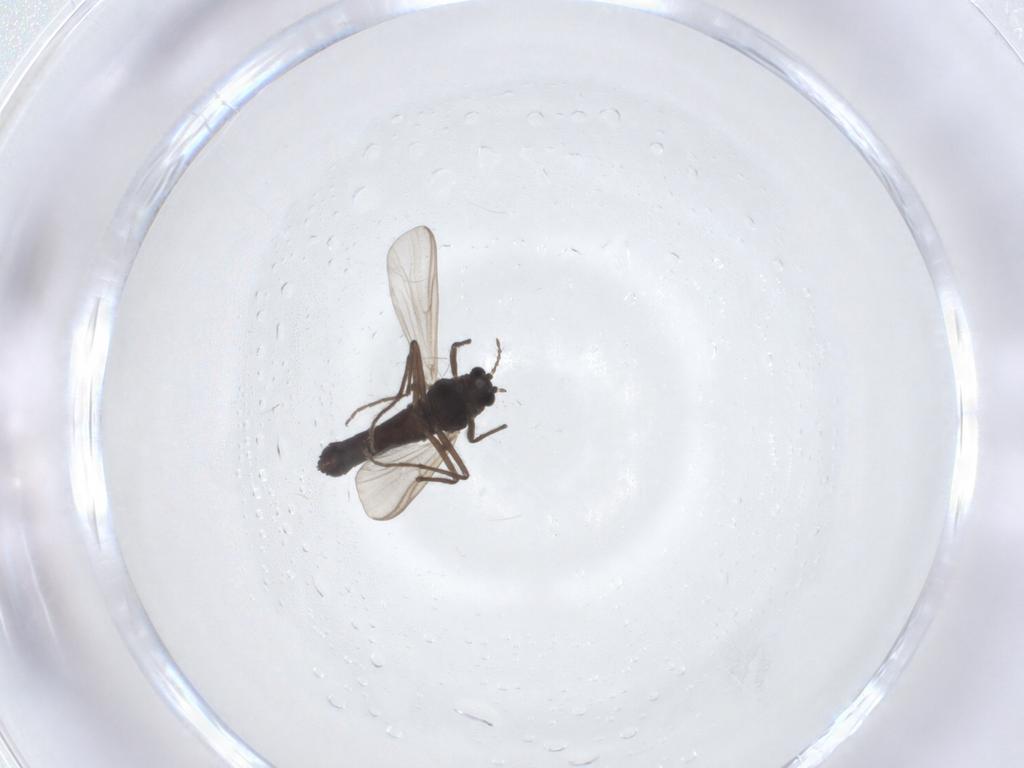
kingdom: Animalia
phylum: Arthropoda
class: Insecta
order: Diptera
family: Chironomidae
